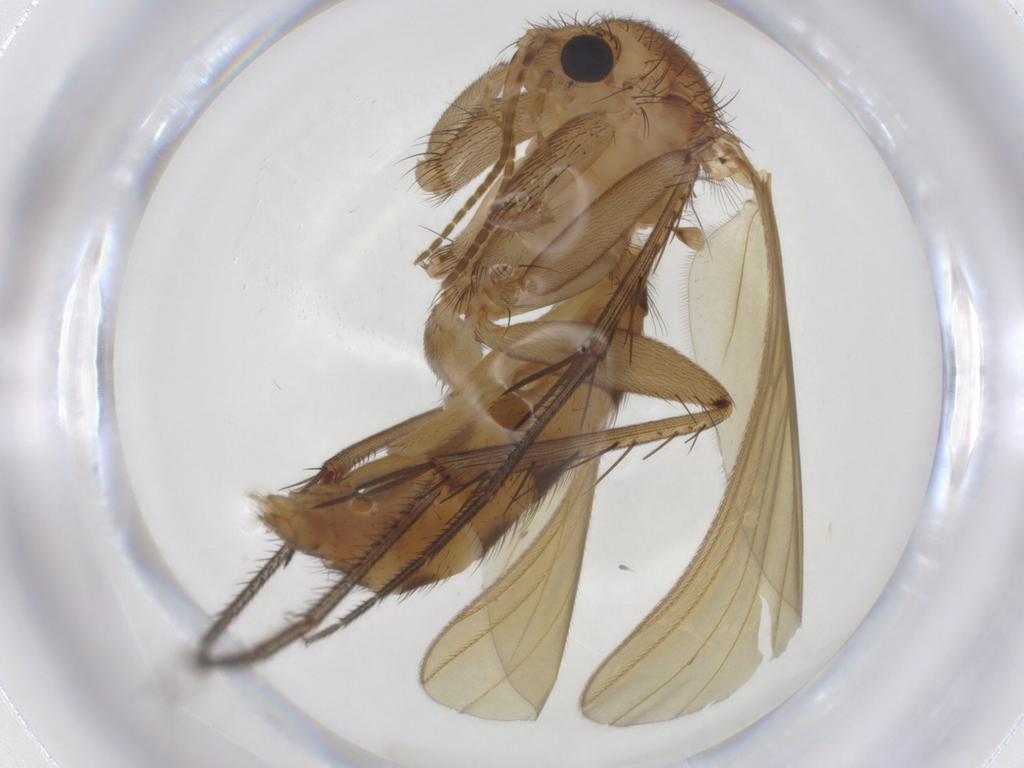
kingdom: Animalia
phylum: Arthropoda
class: Insecta
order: Diptera
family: Mycetophilidae
